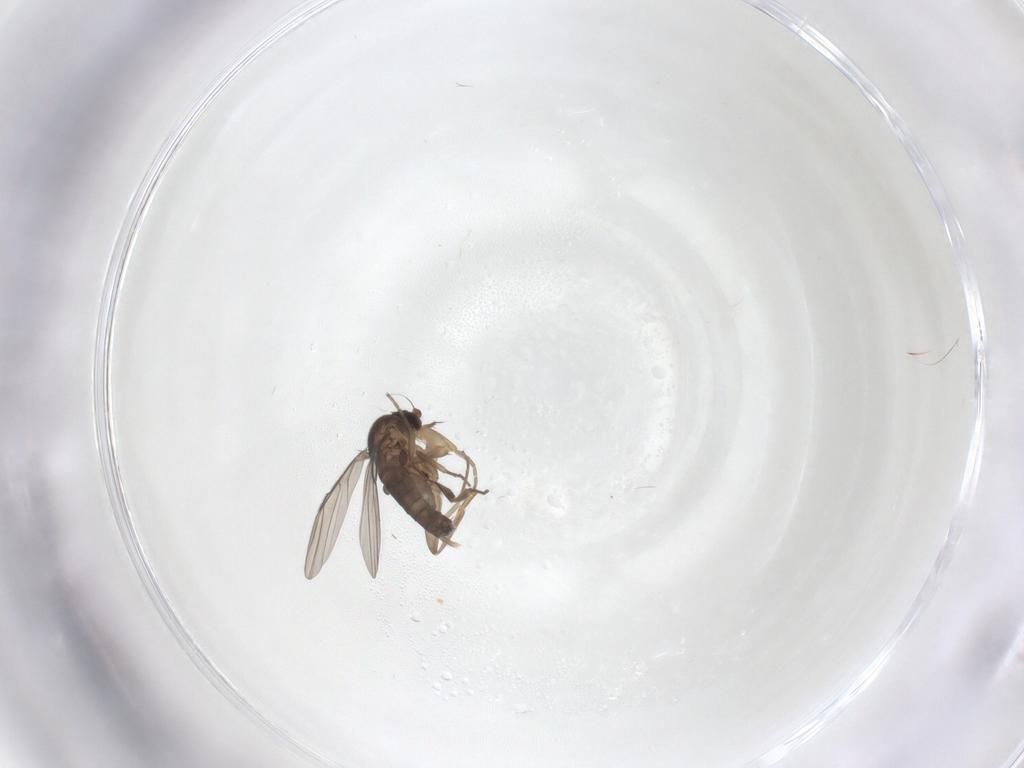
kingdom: Animalia
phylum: Arthropoda
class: Insecta
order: Diptera
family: Phoridae
